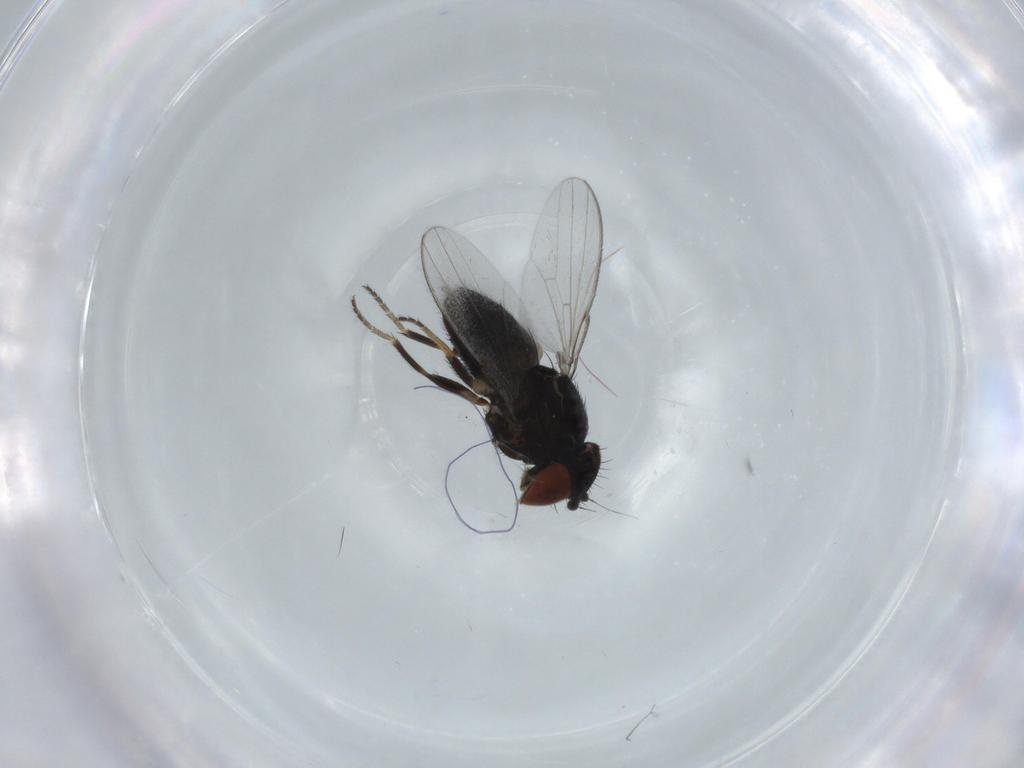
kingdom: Animalia
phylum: Arthropoda
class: Insecta
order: Diptera
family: Milichiidae
